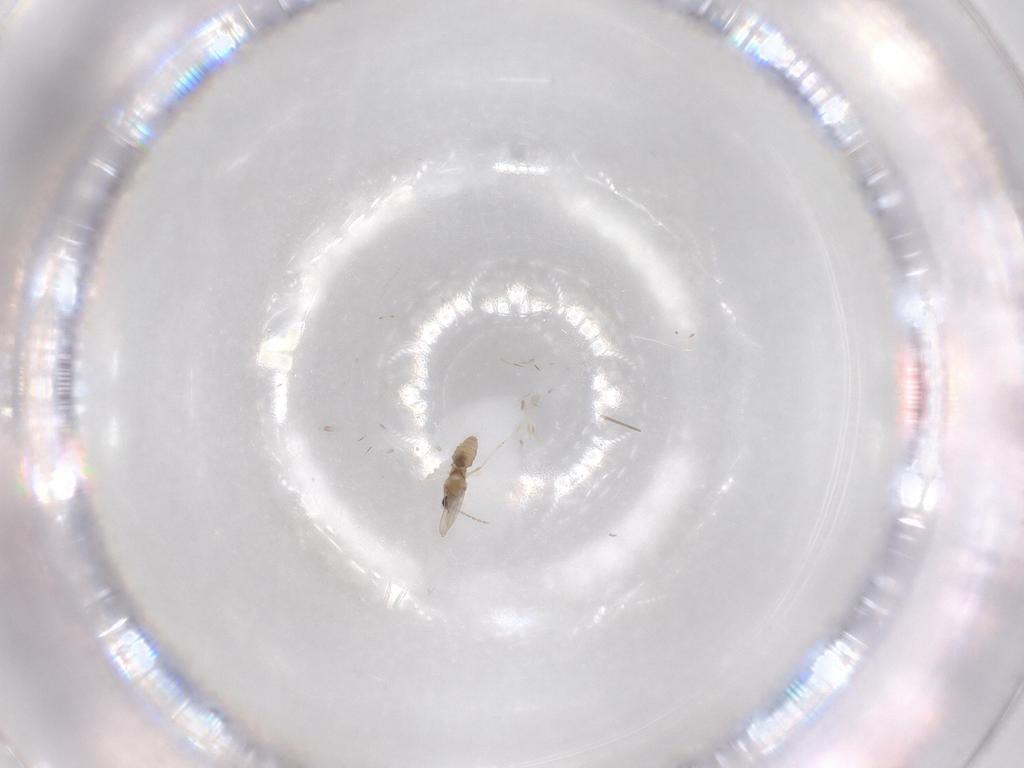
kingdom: Animalia
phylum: Arthropoda
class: Insecta
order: Diptera
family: Cecidomyiidae
